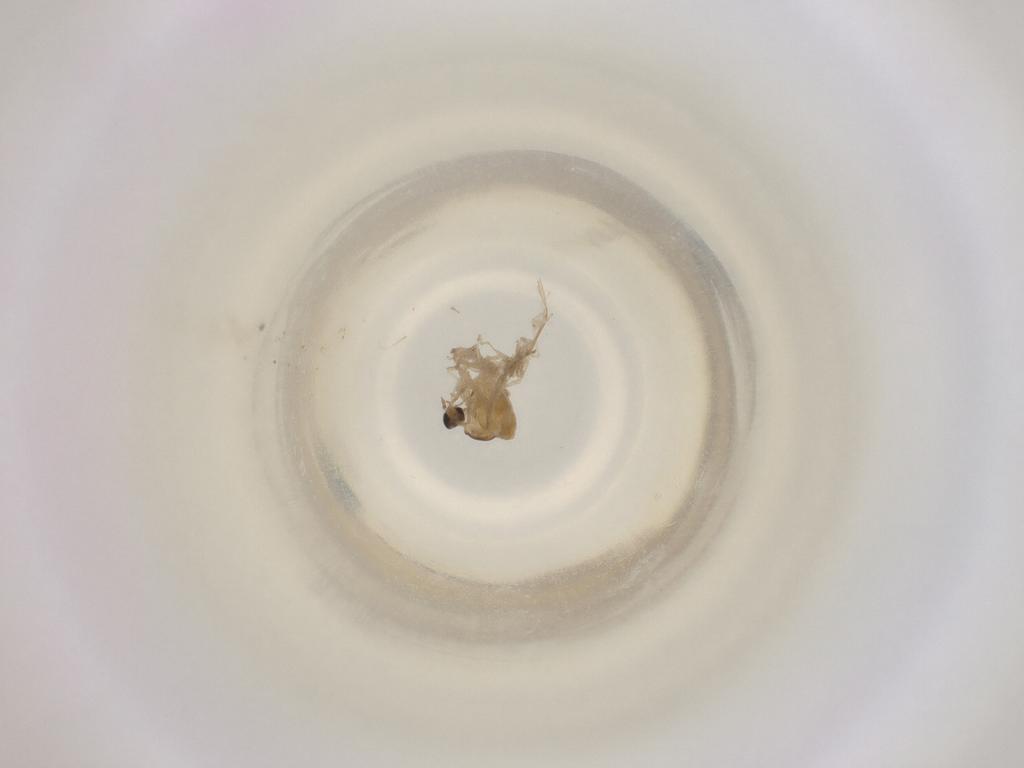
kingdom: Animalia
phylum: Arthropoda
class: Insecta
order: Diptera
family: Cecidomyiidae
